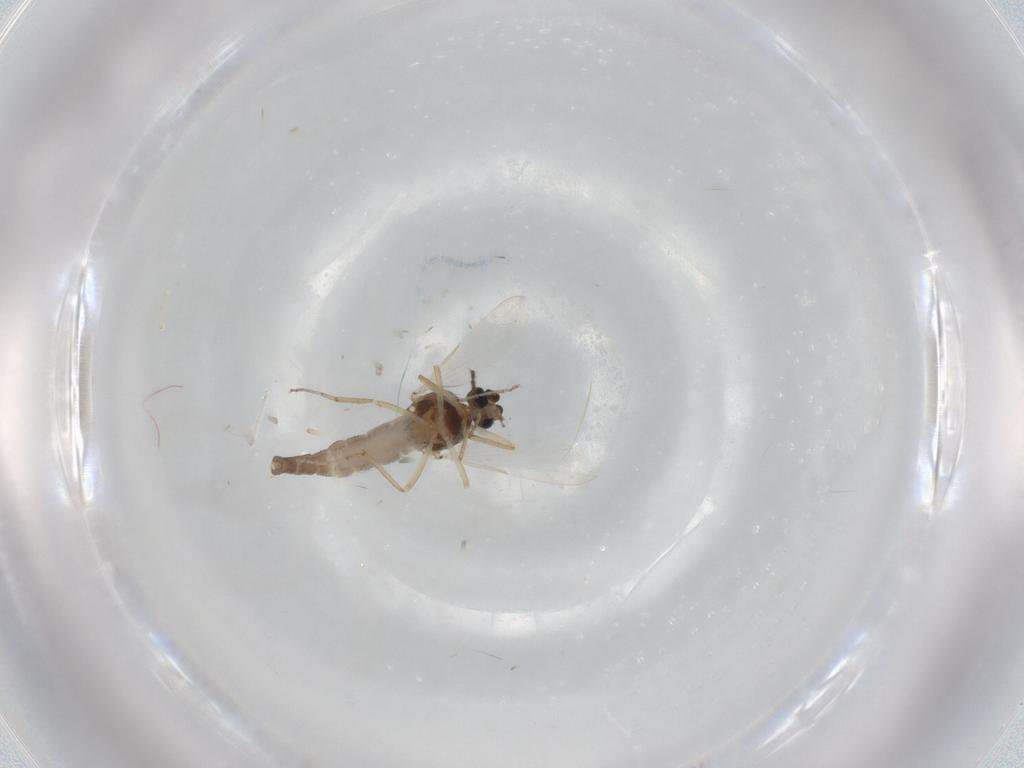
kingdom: Animalia
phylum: Arthropoda
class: Insecta
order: Diptera
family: Chironomidae
